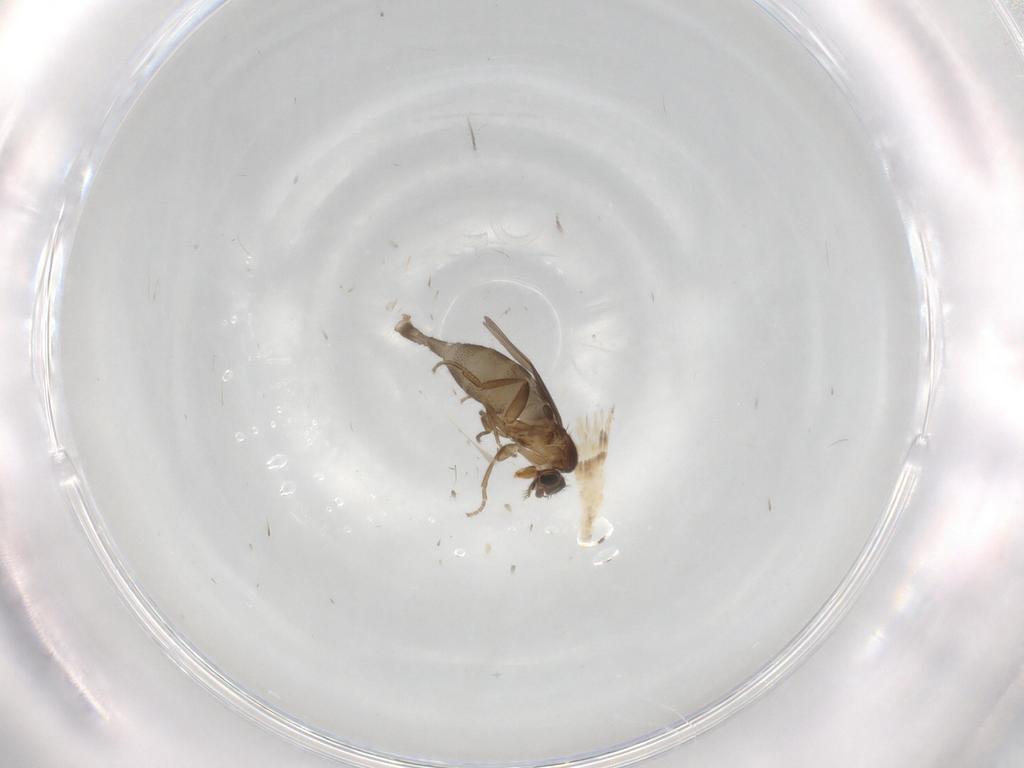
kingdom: Animalia
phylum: Arthropoda
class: Insecta
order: Diptera
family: Phoridae
